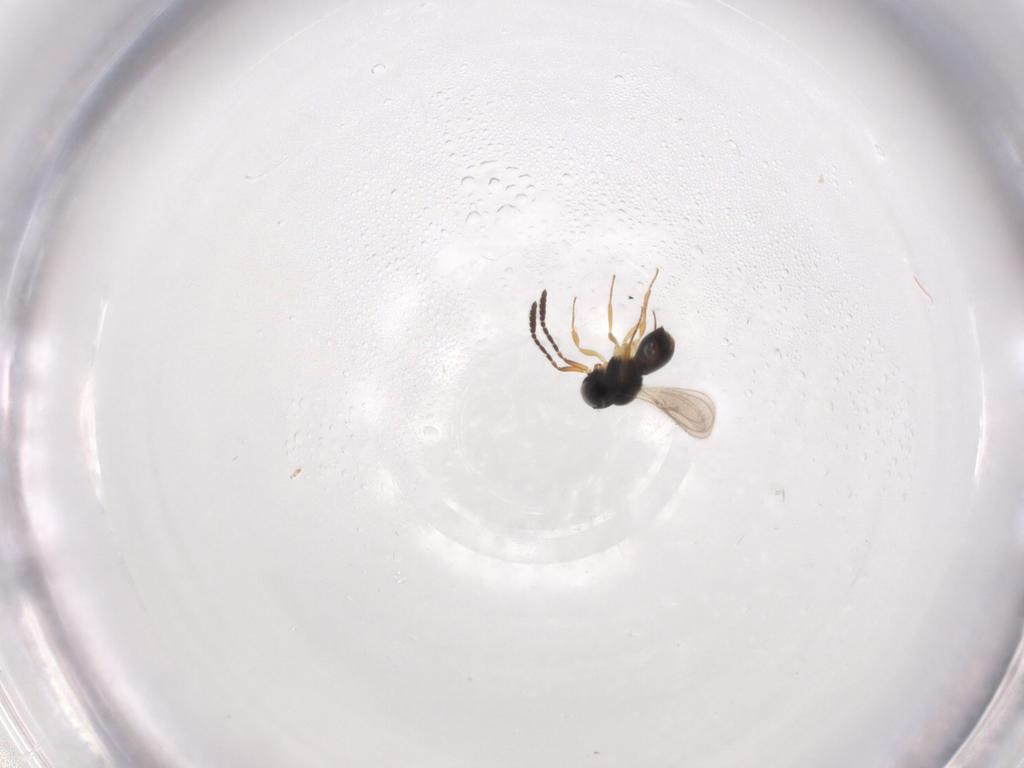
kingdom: Animalia
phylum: Arthropoda
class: Insecta
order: Hymenoptera
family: Scelionidae
